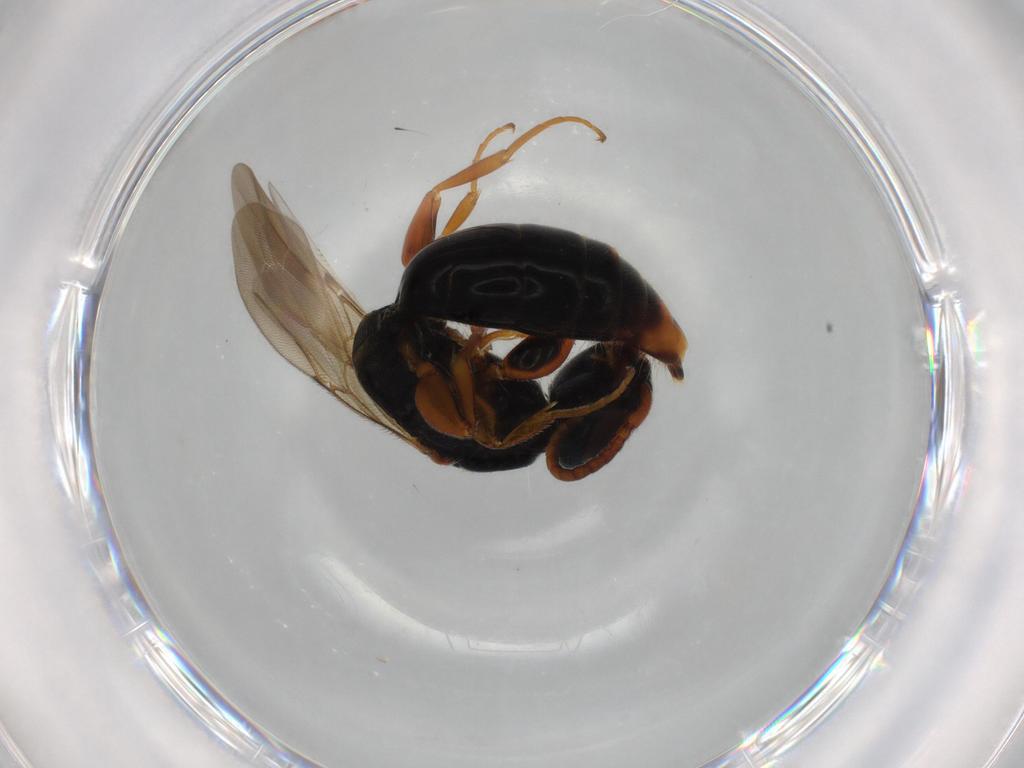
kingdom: Animalia
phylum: Arthropoda
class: Insecta
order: Hymenoptera
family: Bethylidae
